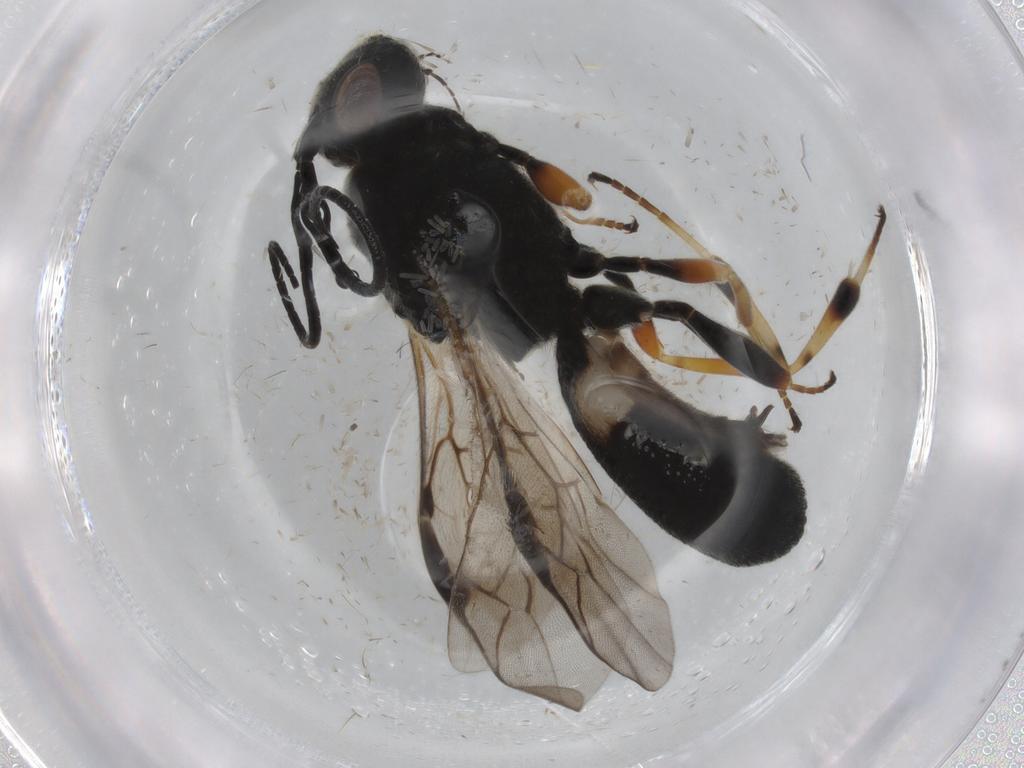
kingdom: Animalia
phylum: Arthropoda
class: Insecta
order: Hymenoptera
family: Braconidae
